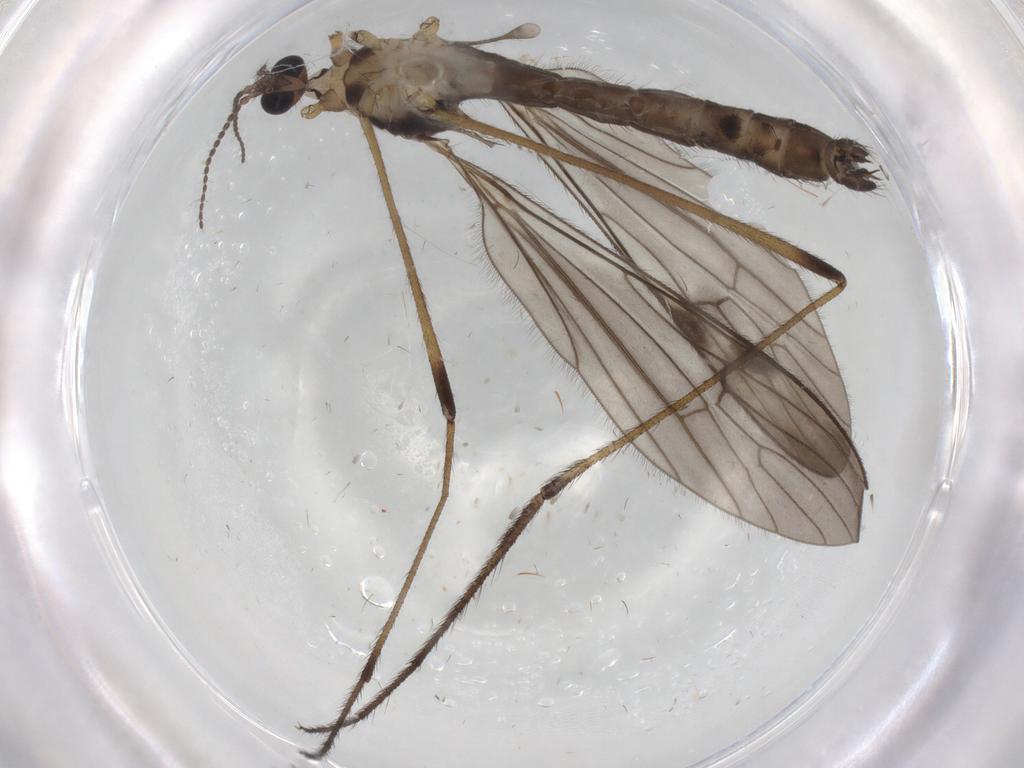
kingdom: Animalia
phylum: Arthropoda
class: Insecta
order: Diptera
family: Limoniidae
